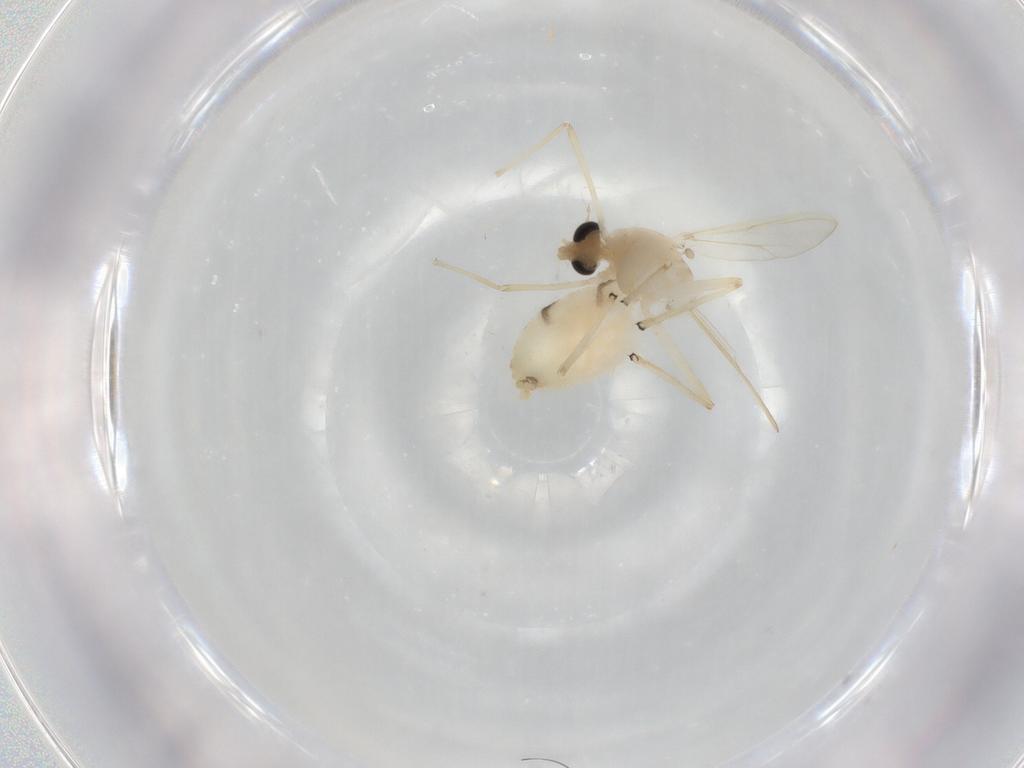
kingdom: Animalia
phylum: Arthropoda
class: Insecta
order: Diptera
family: Chironomidae
